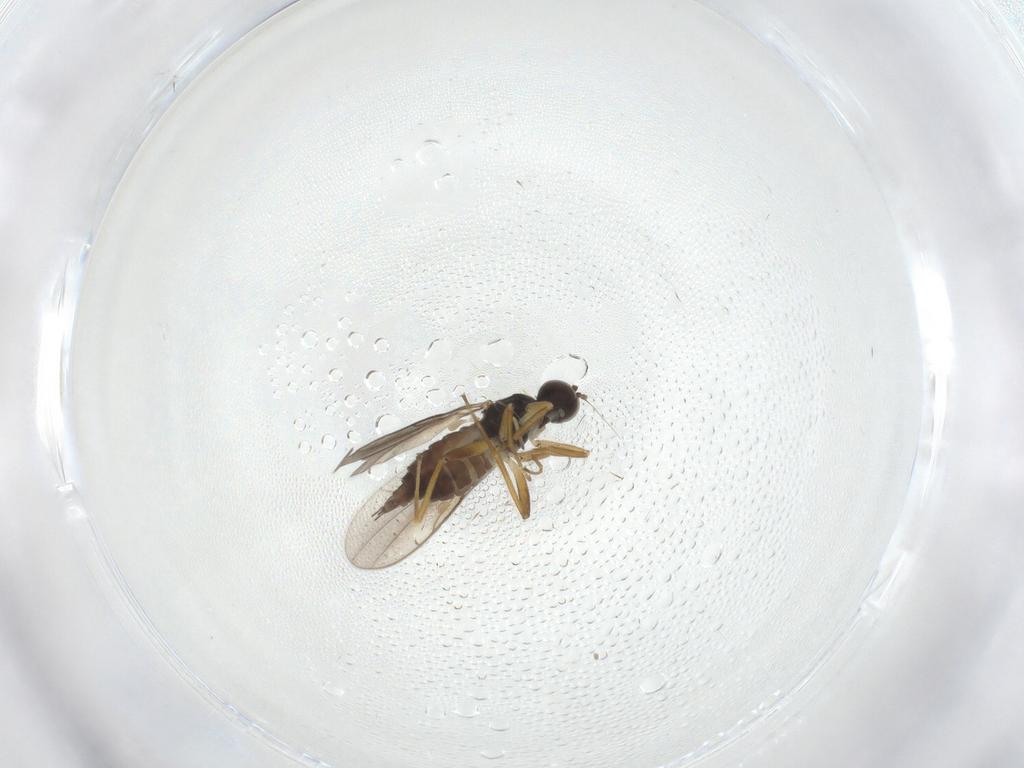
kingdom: Animalia
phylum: Arthropoda
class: Insecta
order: Diptera
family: Hybotidae
